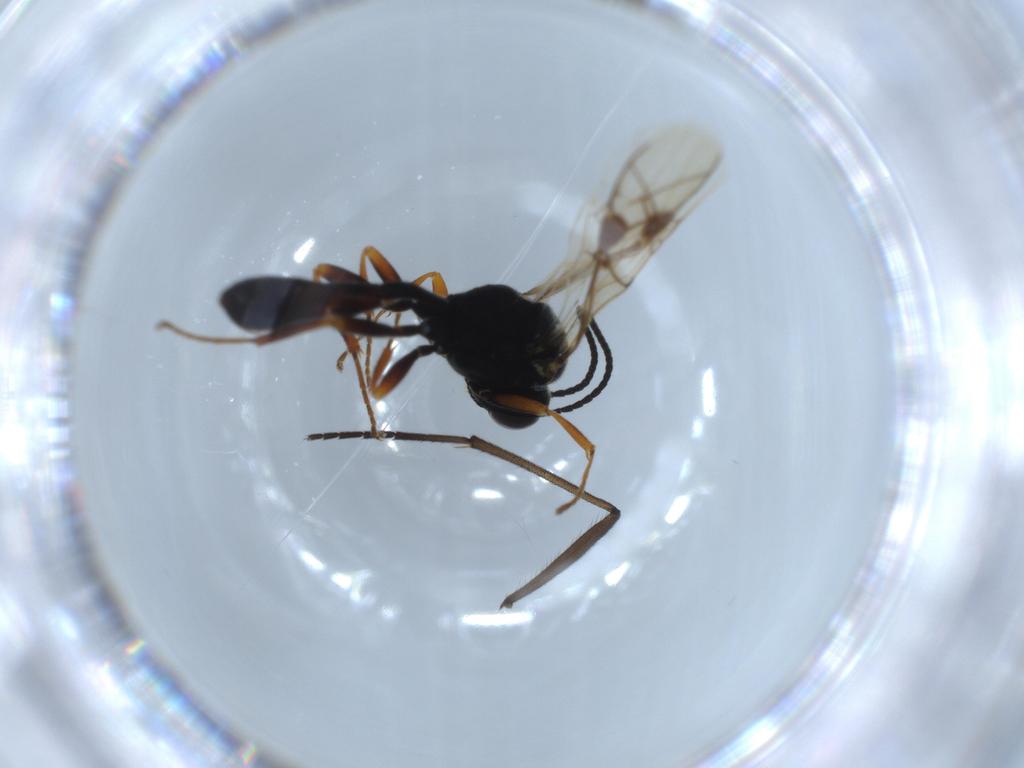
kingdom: Animalia
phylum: Arthropoda
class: Insecta
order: Hymenoptera
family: Ichneumonidae
